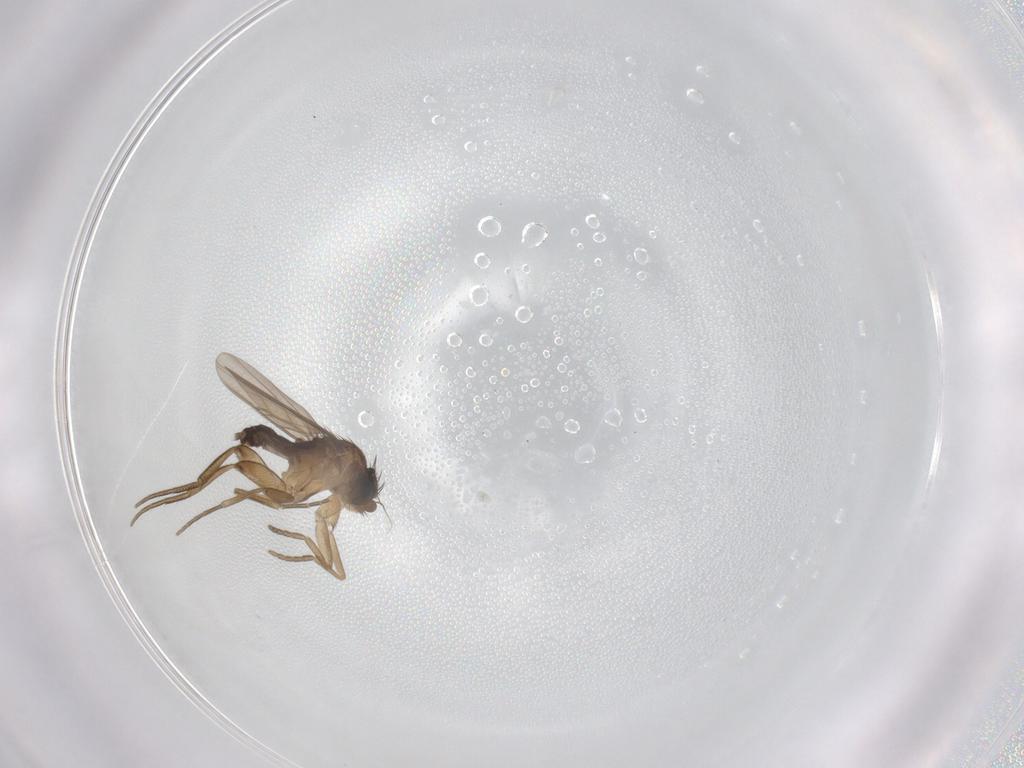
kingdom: Animalia
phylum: Arthropoda
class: Insecta
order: Diptera
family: Phoridae
